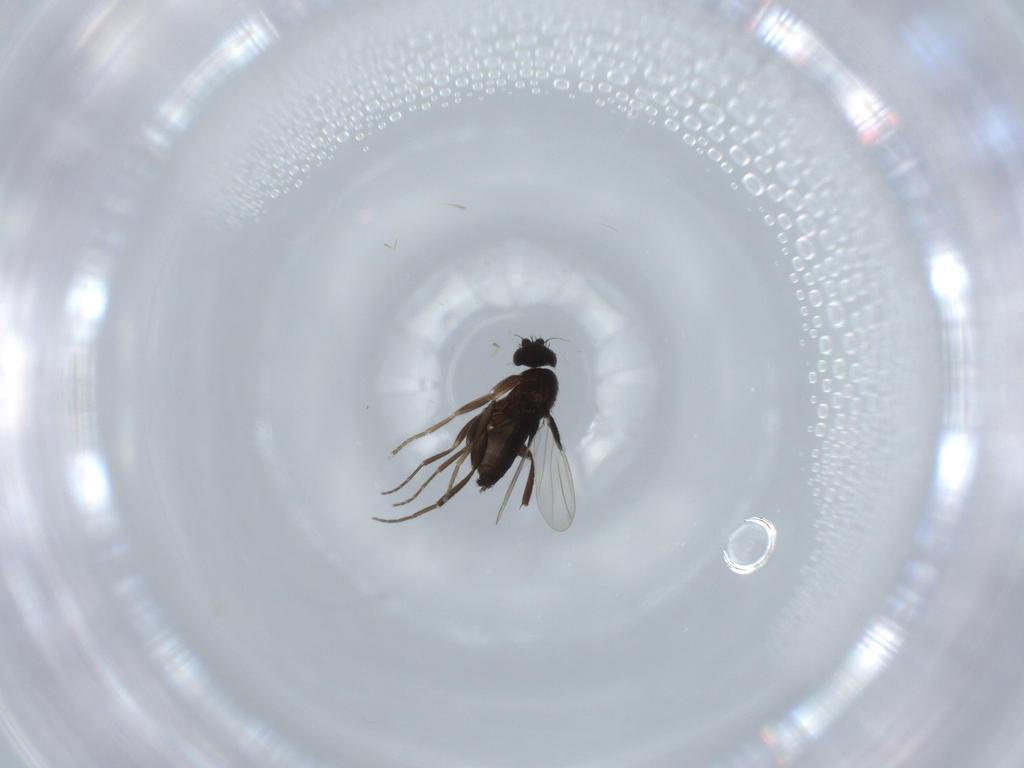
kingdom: Animalia
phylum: Arthropoda
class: Insecta
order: Diptera
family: Phoridae
